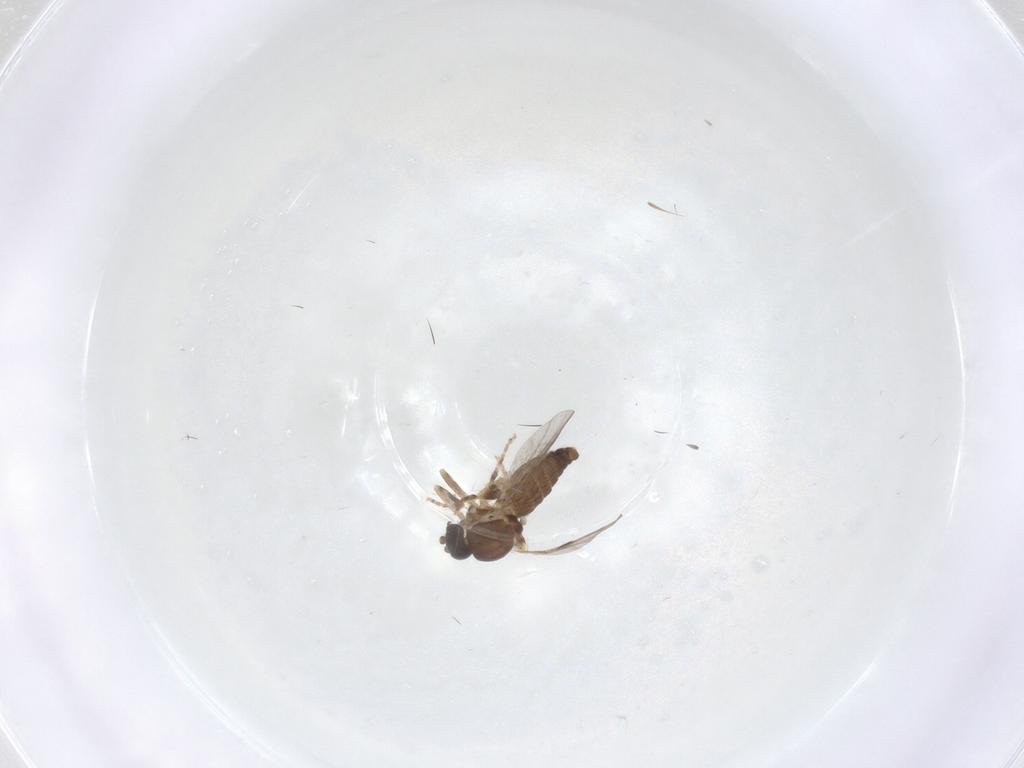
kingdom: Animalia
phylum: Arthropoda
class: Insecta
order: Diptera
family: Ceratopogonidae
